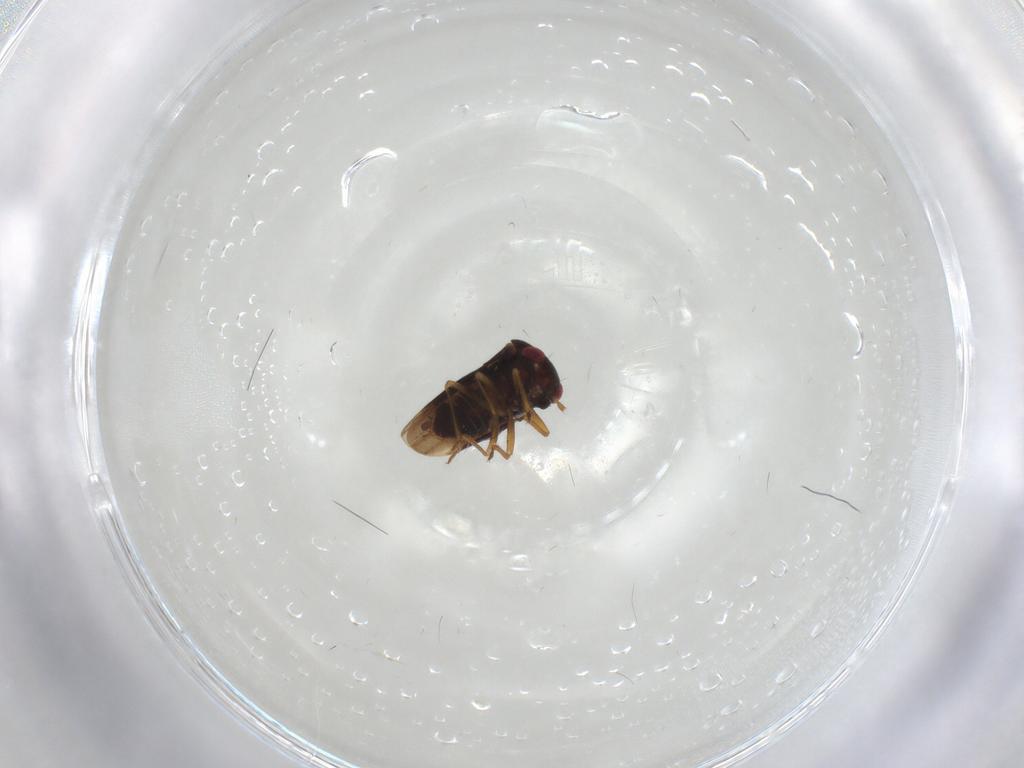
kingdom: Animalia
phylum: Arthropoda
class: Insecta
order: Hemiptera
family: Schizopteridae
